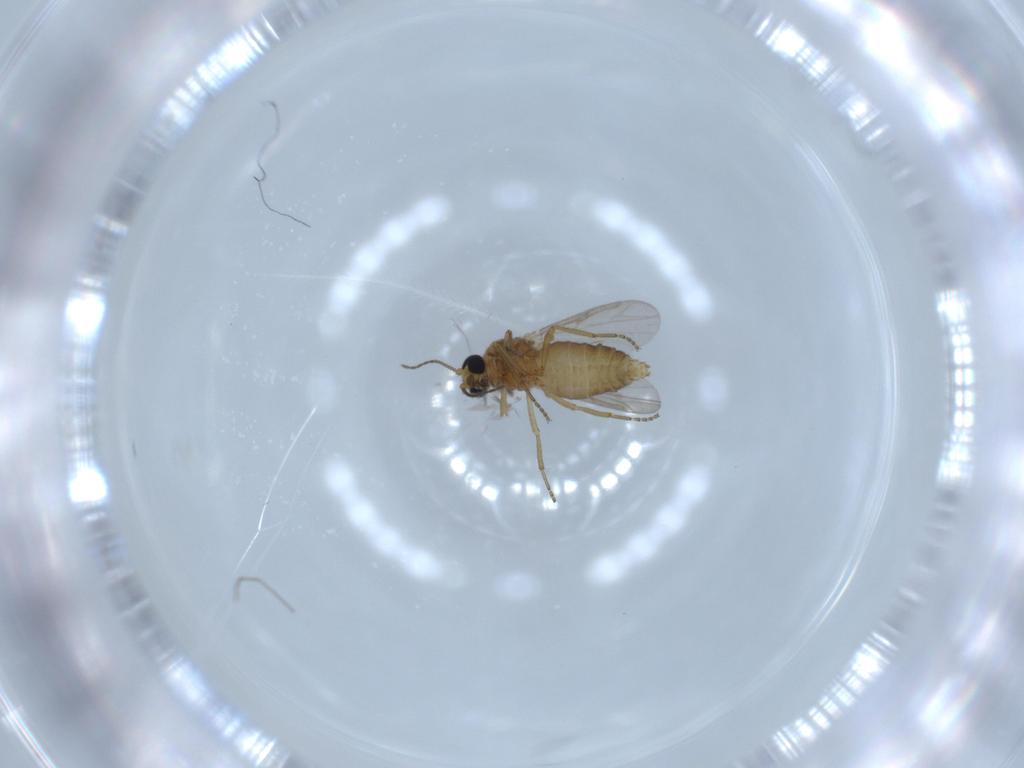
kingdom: Animalia
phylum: Arthropoda
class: Insecta
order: Diptera
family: Ceratopogonidae
